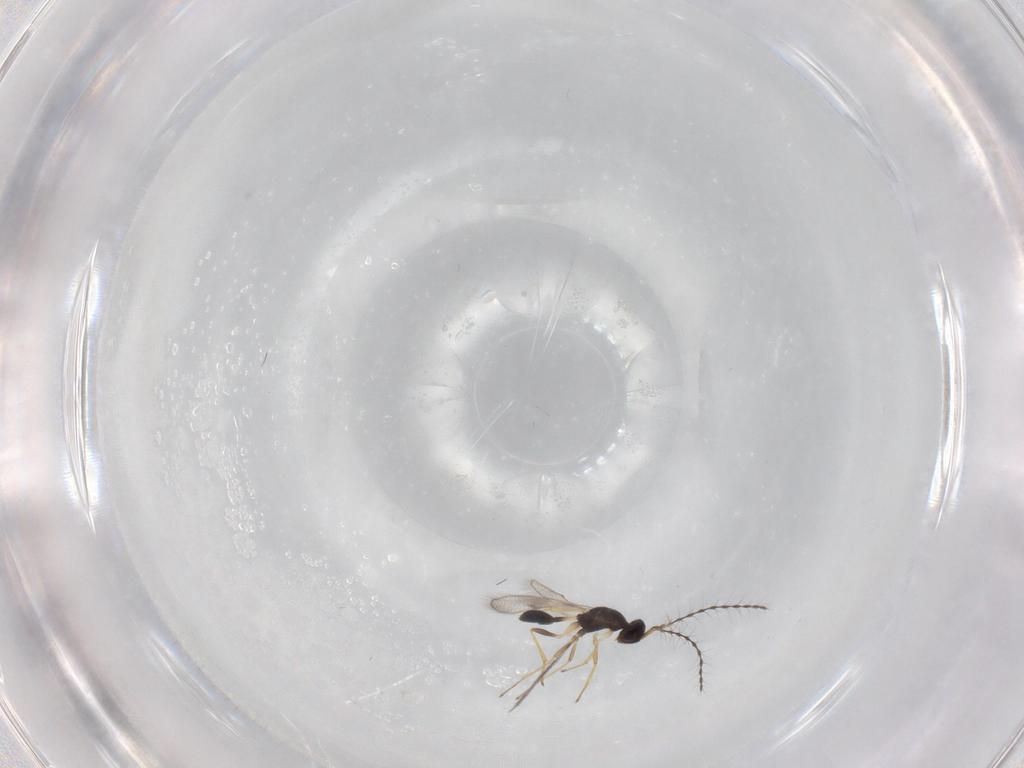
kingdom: Animalia
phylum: Arthropoda
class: Insecta
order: Hymenoptera
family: Diparidae
